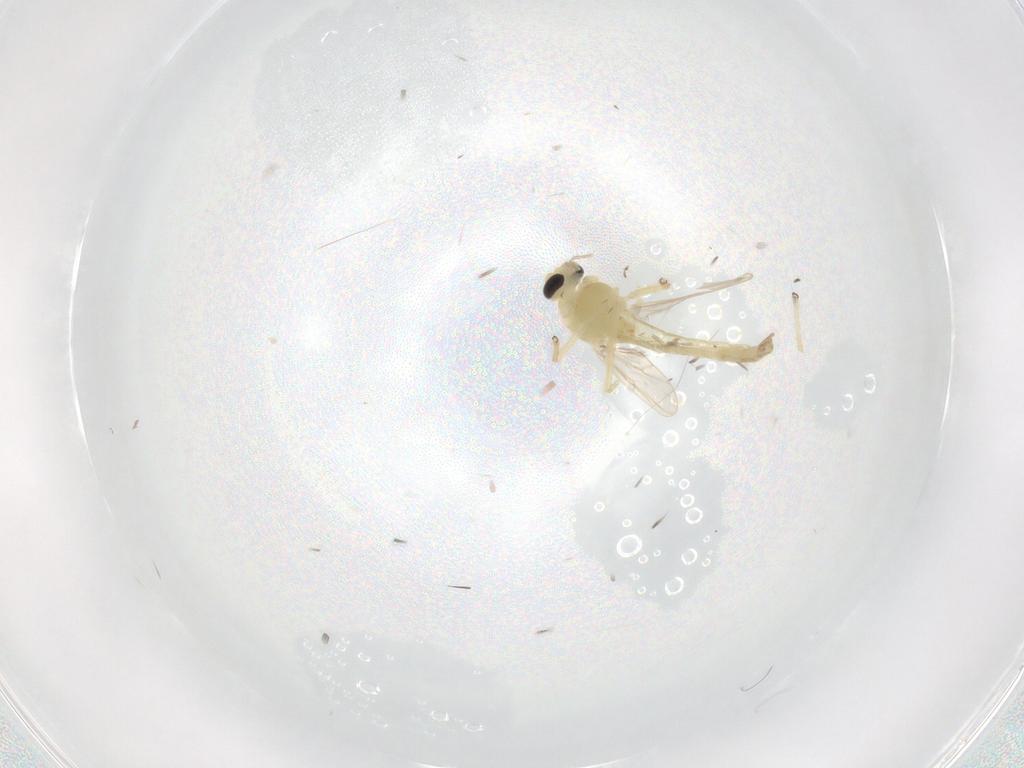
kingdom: Animalia
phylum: Arthropoda
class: Insecta
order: Diptera
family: Chironomidae
